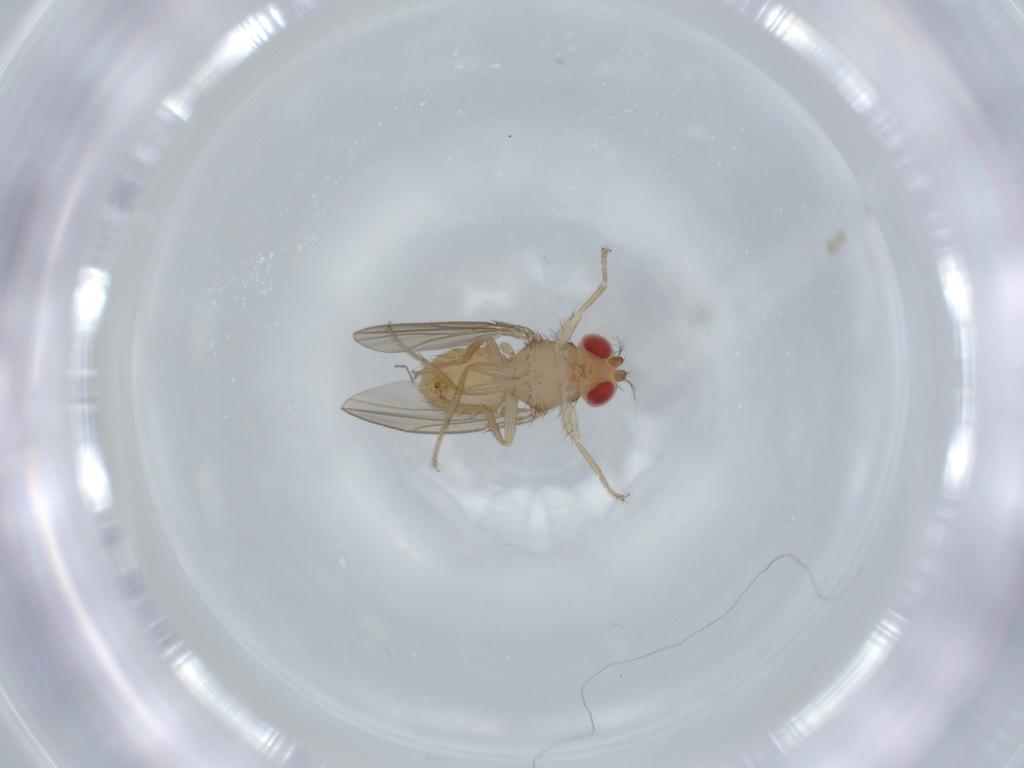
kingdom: Animalia
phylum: Arthropoda
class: Insecta
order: Diptera
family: Drosophilidae
